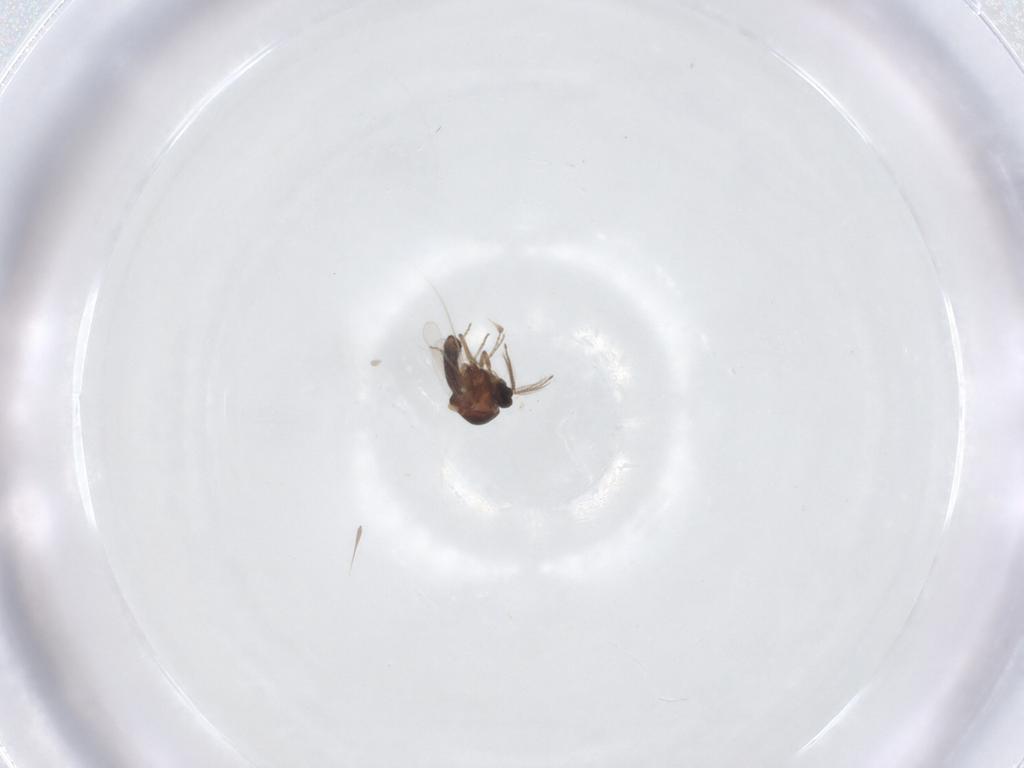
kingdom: Animalia
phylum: Arthropoda
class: Insecta
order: Diptera
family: Ceratopogonidae
